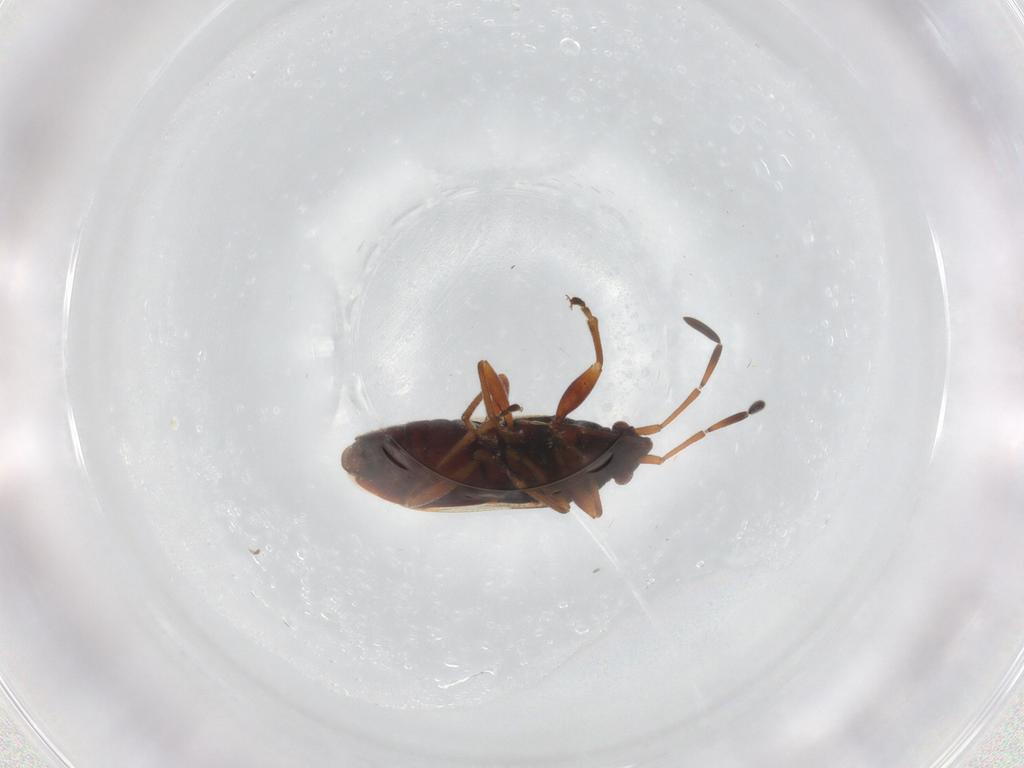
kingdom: Animalia
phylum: Arthropoda
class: Insecta
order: Hemiptera
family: Rhyparochromidae
